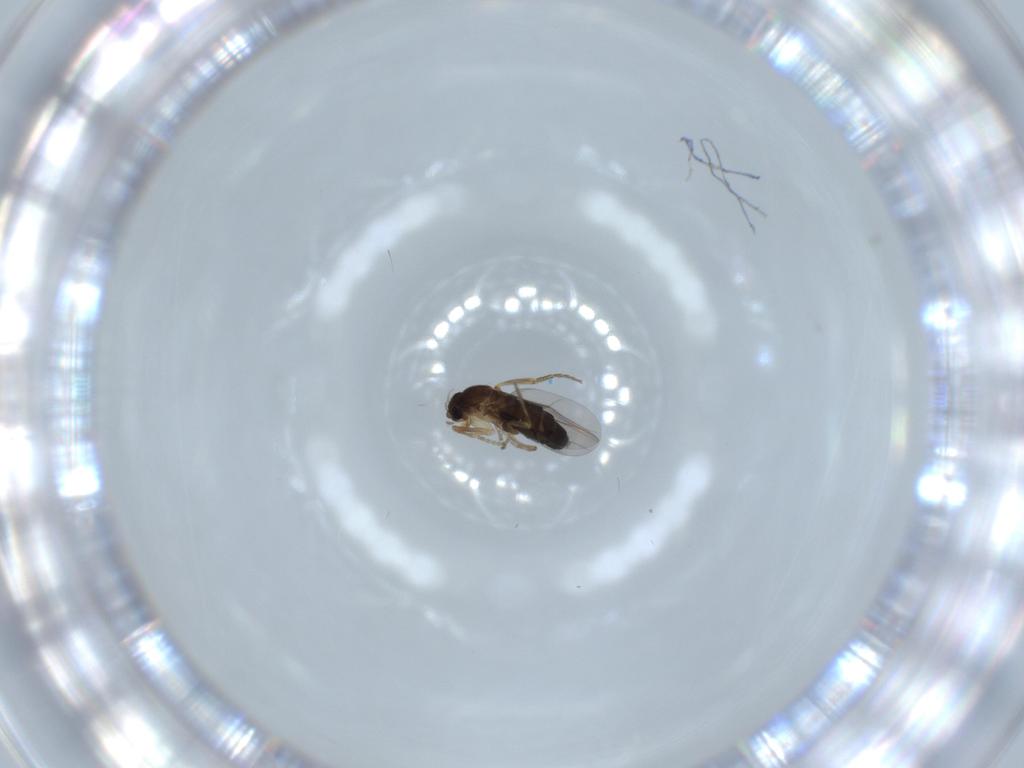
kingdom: Animalia
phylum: Arthropoda
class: Insecta
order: Diptera
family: Phoridae
